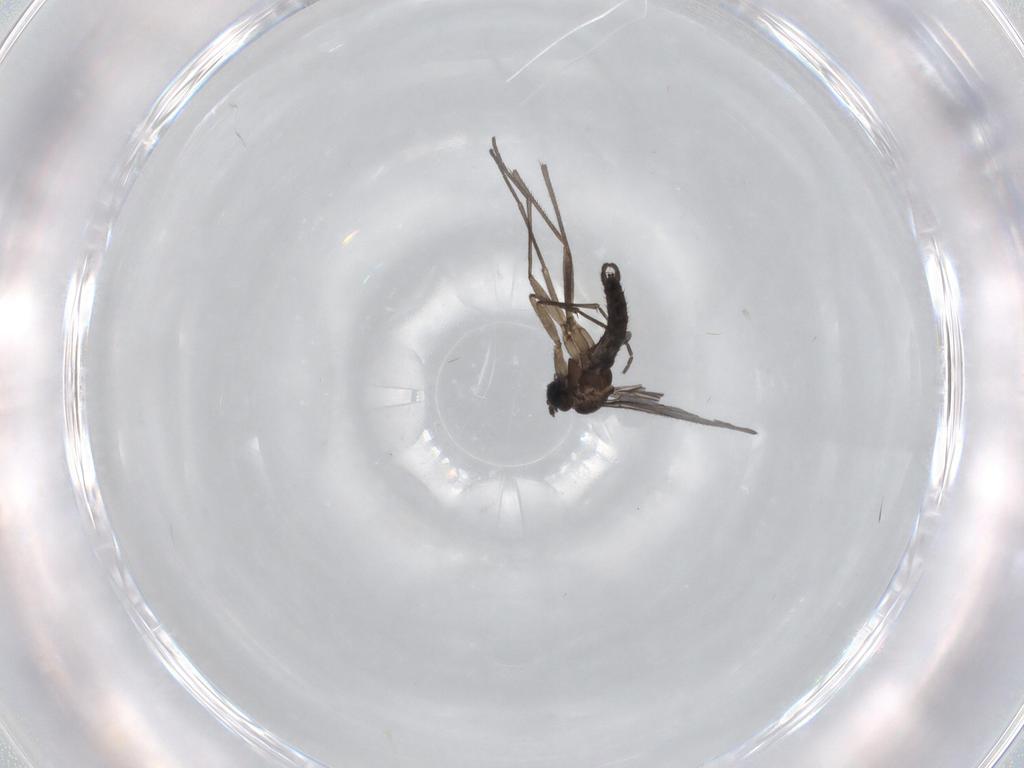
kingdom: Animalia
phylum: Arthropoda
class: Insecta
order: Diptera
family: Sciaridae
